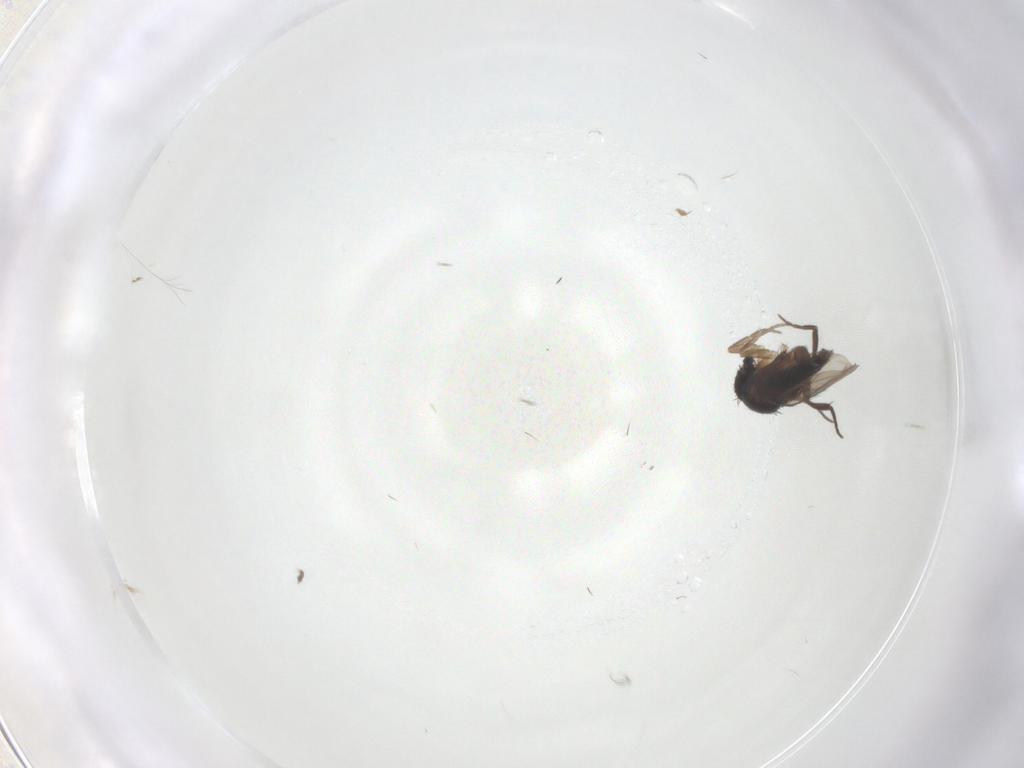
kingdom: Animalia
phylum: Arthropoda
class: Insecta
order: Diptera
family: Phoridae
